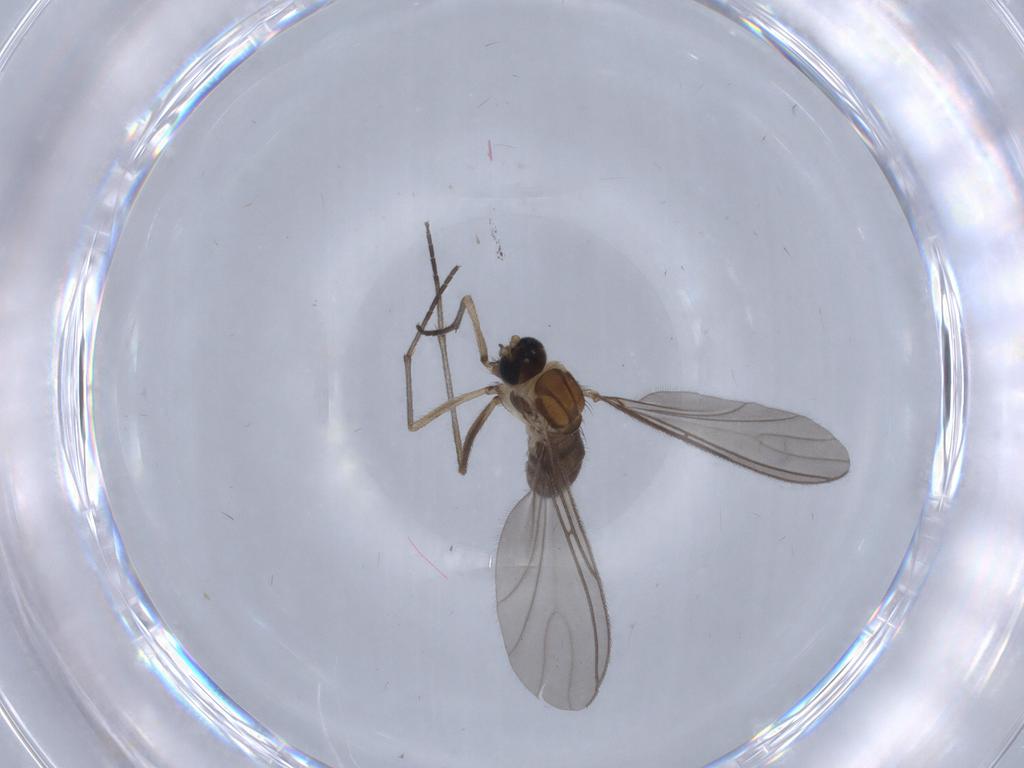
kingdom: Animalia
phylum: Arthropoda
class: Insecta
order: Diptera
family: Sciaridae
